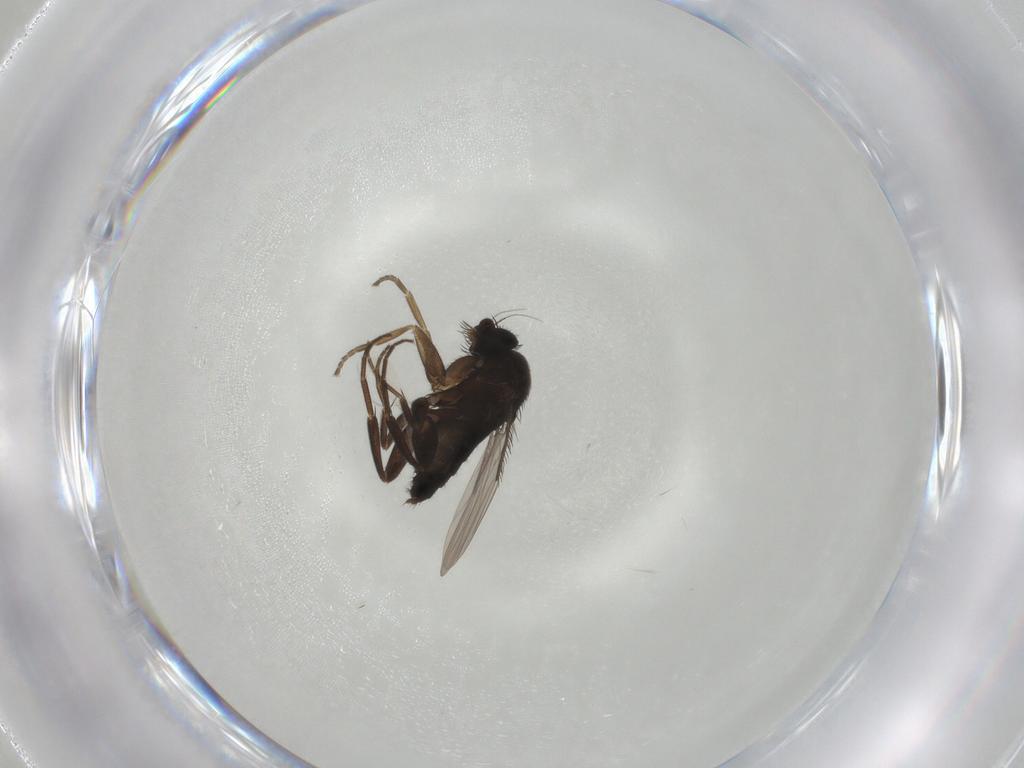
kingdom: Animalia
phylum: Arthropoda
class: Insecta
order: Diptera
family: Phoridae
